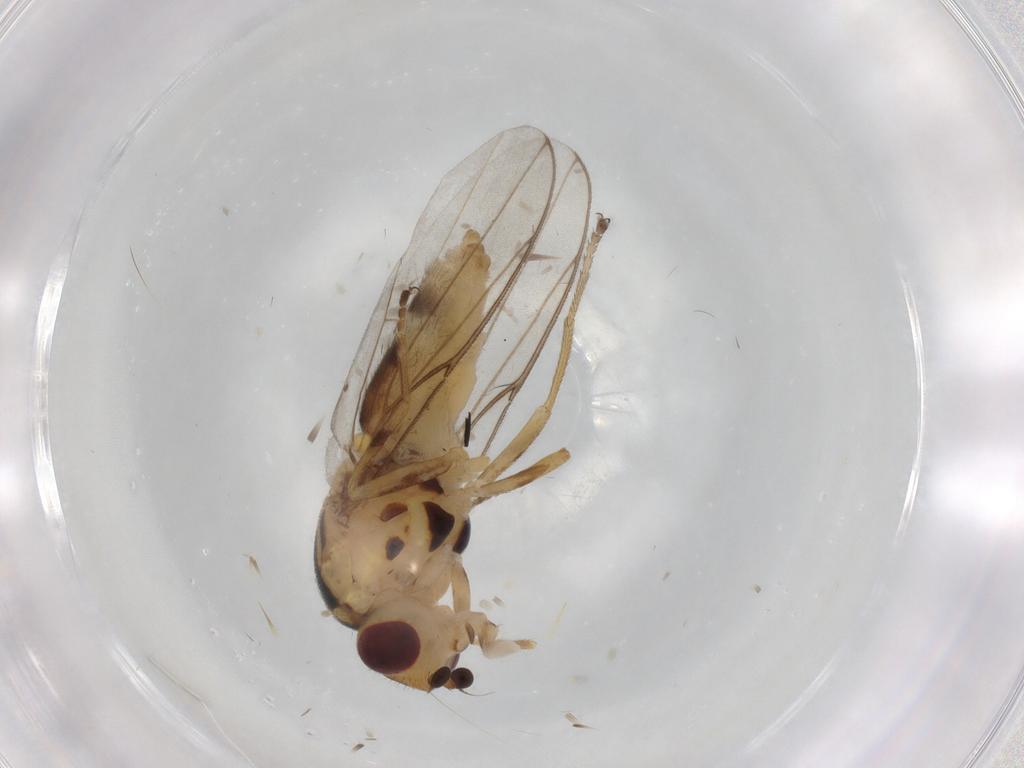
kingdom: Animalia
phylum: Arthropoda
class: Insecta
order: Diptera
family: Chloropidae
